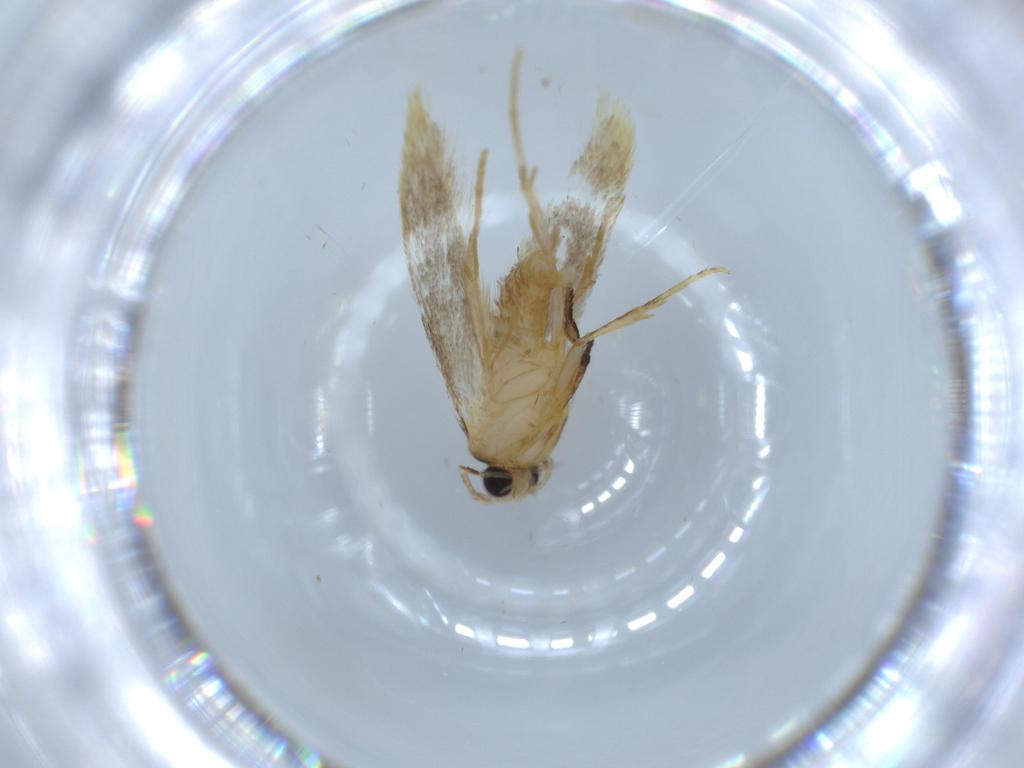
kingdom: Animalia
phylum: Arthropoda
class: Insecta
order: Lepidoptera
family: Tineidae
